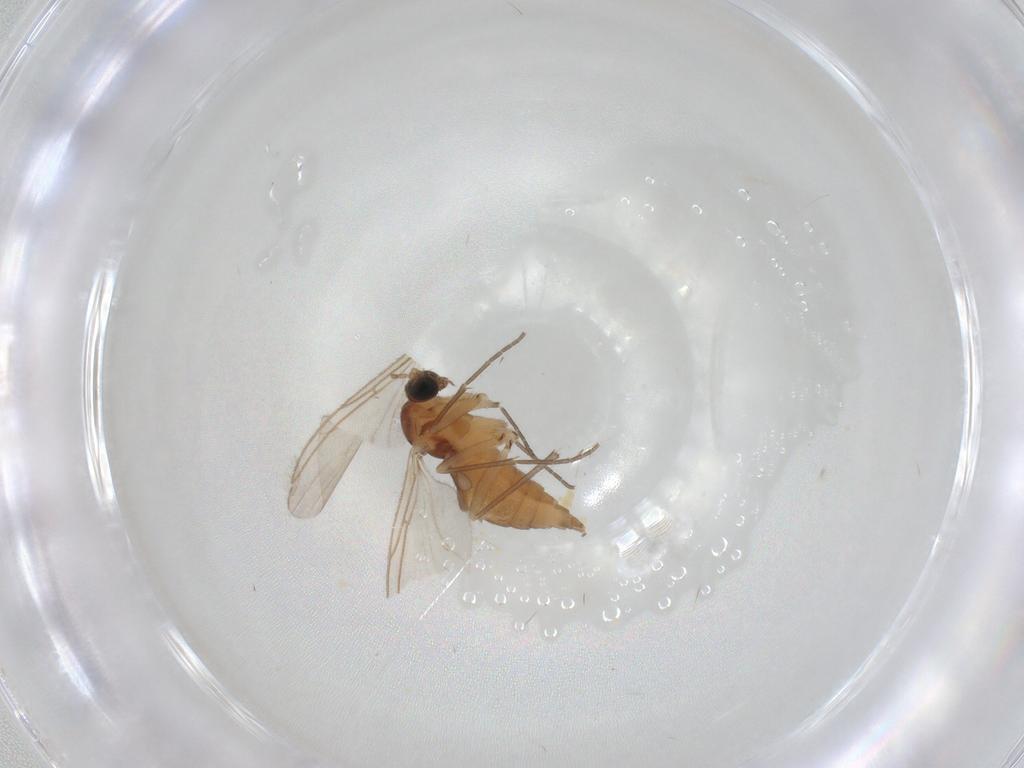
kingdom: Animalia
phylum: Arthropoda
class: Insecta
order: Diptera
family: Sciaridae
